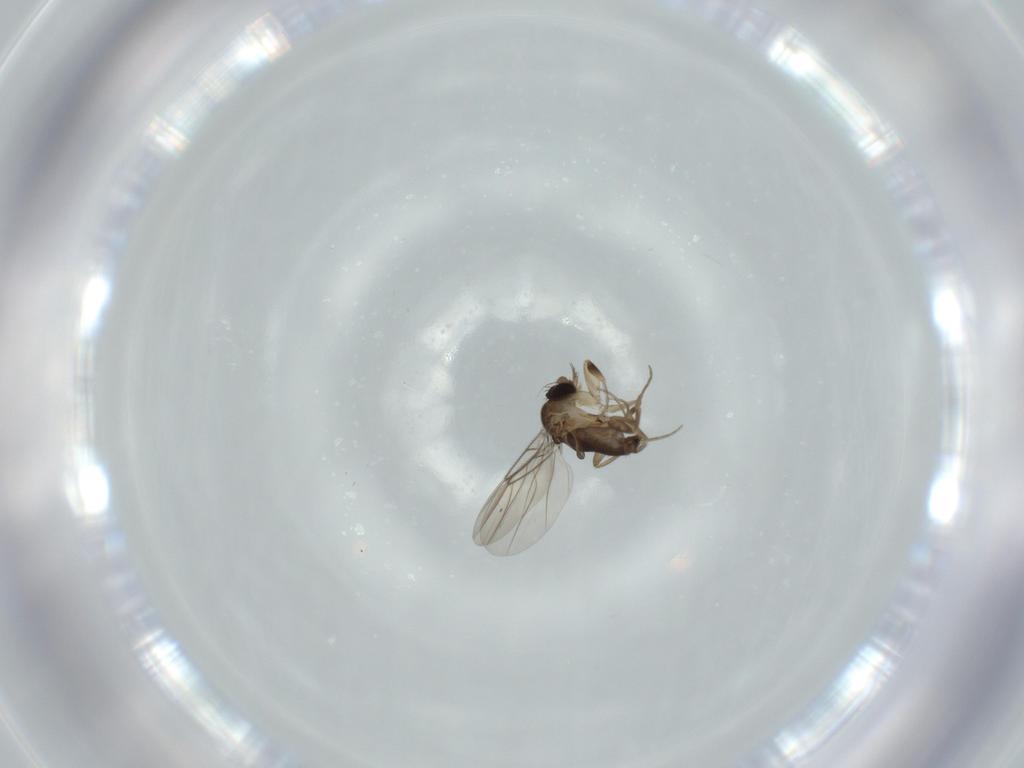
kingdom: Animalia
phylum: Arthropoda
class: Insecta
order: Diptera
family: Phoridae
